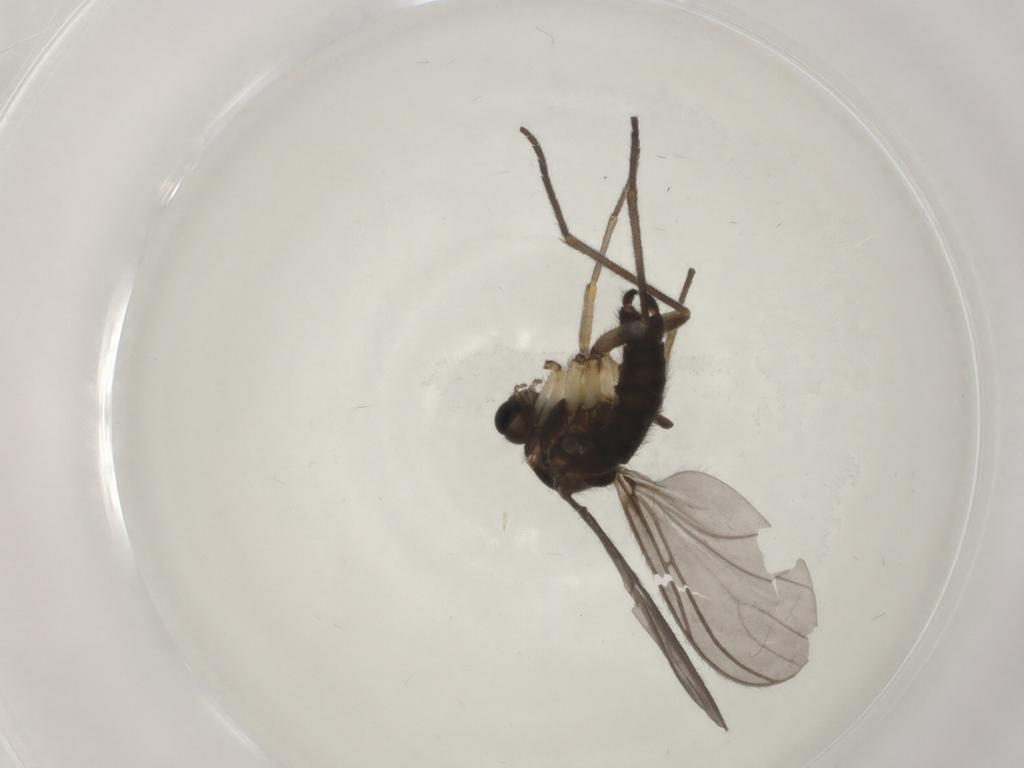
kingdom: Animalia
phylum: Arthropoda
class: Insecta
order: Diptera
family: Sciaridae
